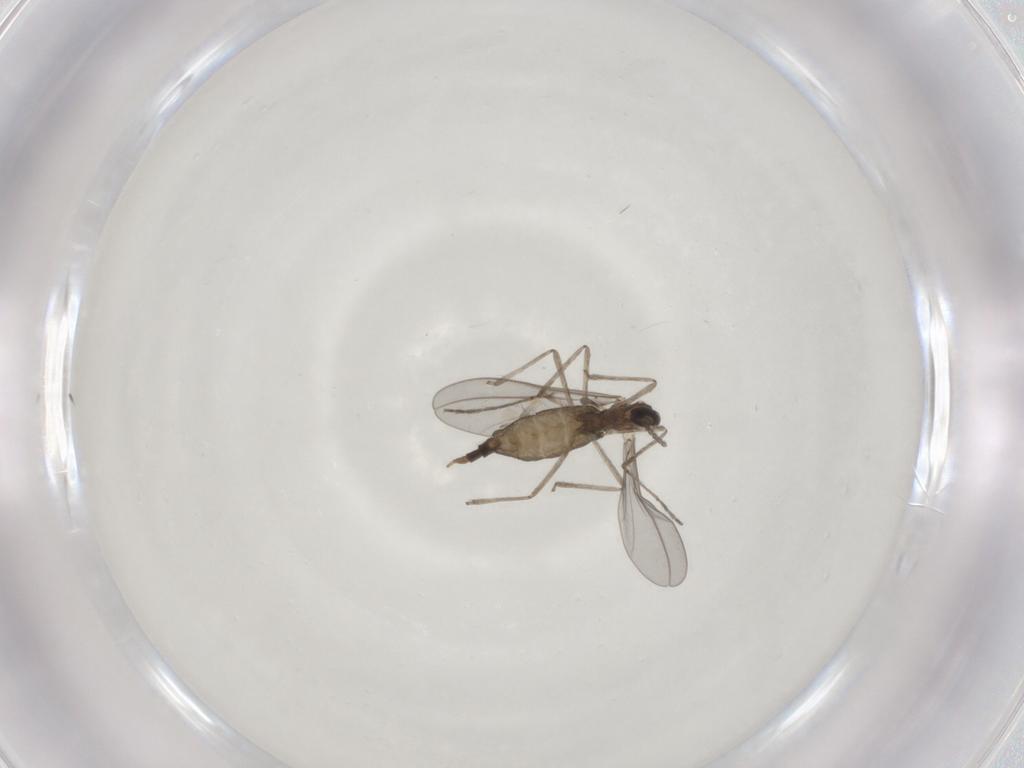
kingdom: Animalia
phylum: Arthropoda
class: Insecta
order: Diptera
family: Cecidomyiidae
